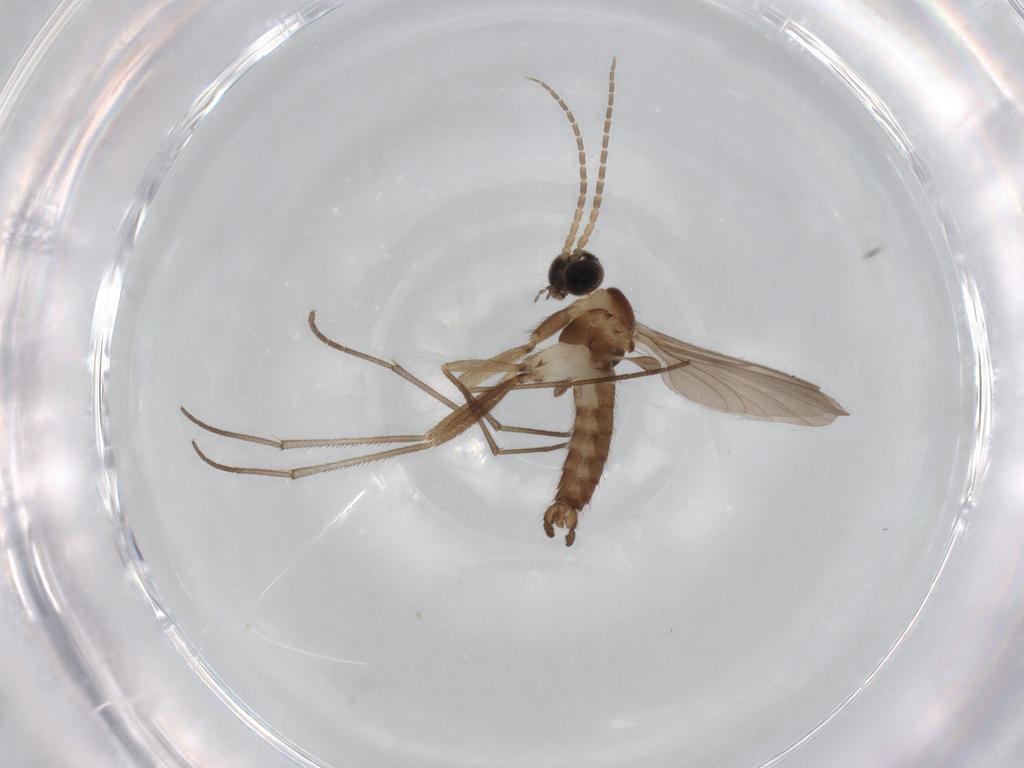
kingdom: Animalia
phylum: Arthropoda
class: Insecta
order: Diptera
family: Sciaridae
